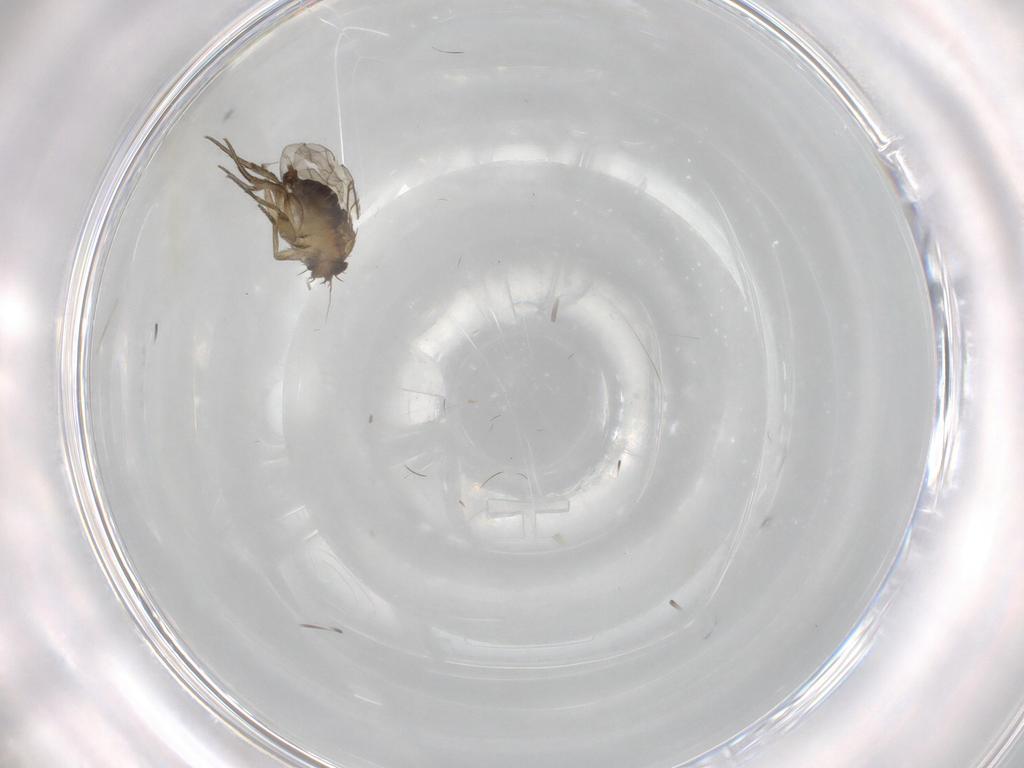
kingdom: Animalia
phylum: Arthropoda
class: Insecta
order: Diptera
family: Phoridae
